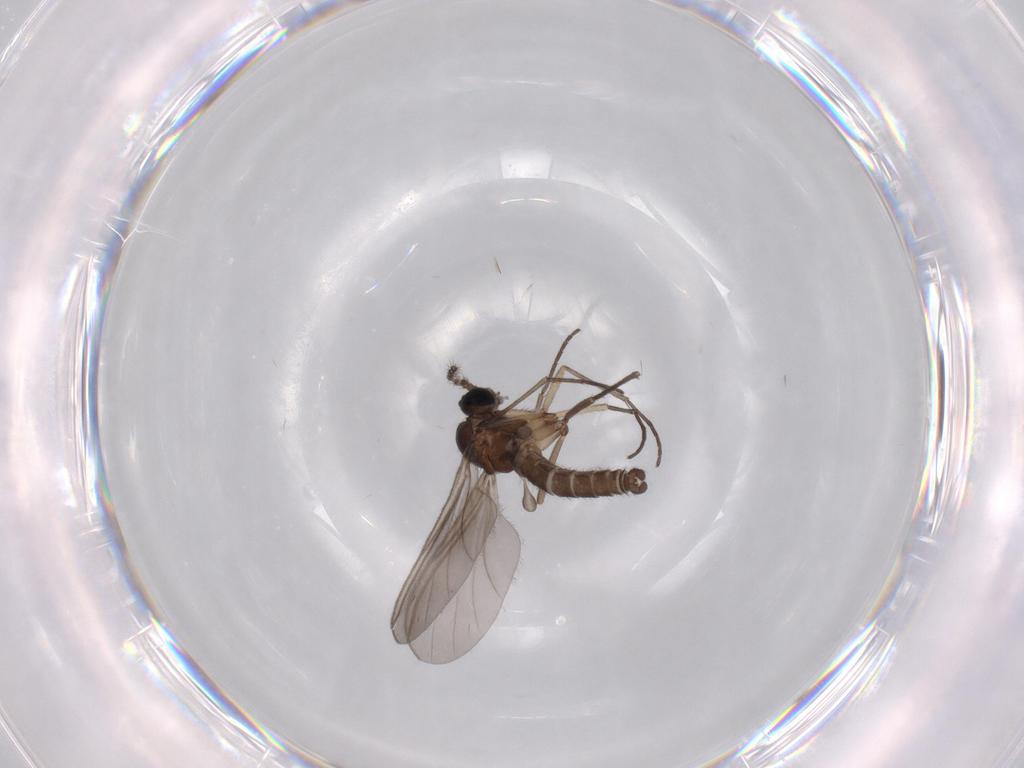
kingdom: Animalia
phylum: Arthropoda
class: Insecta
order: Diptera
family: Sciaridae
